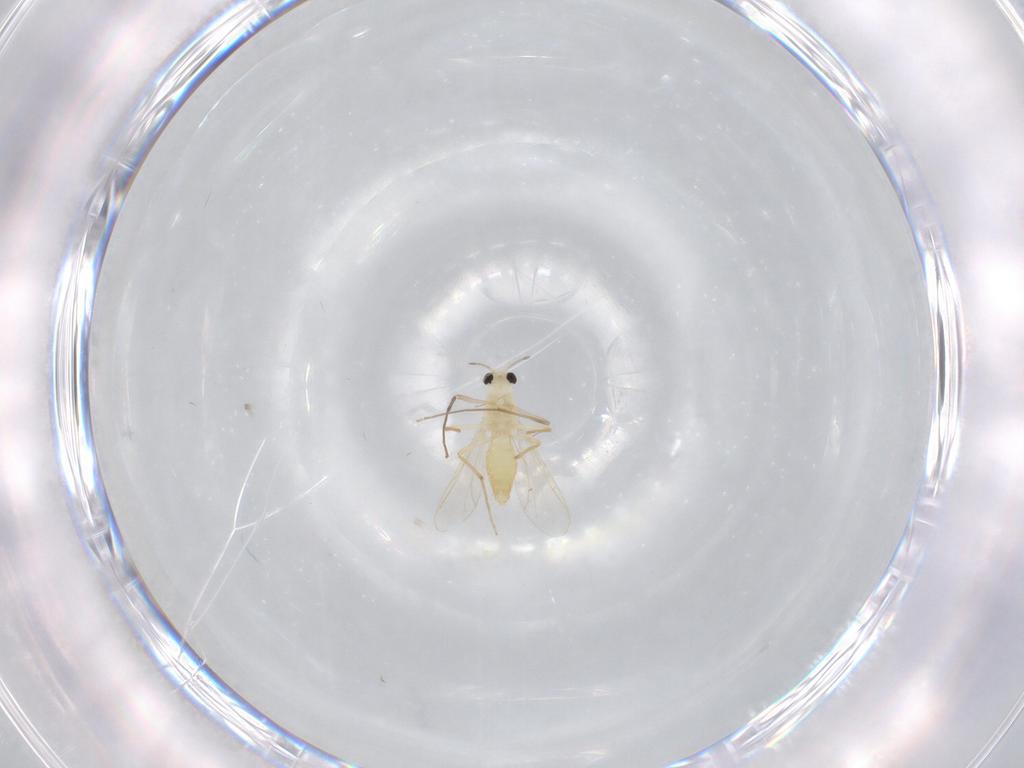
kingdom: Animalia
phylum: Arthropoda
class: Insecta
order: Diptera
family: Chironomidae
